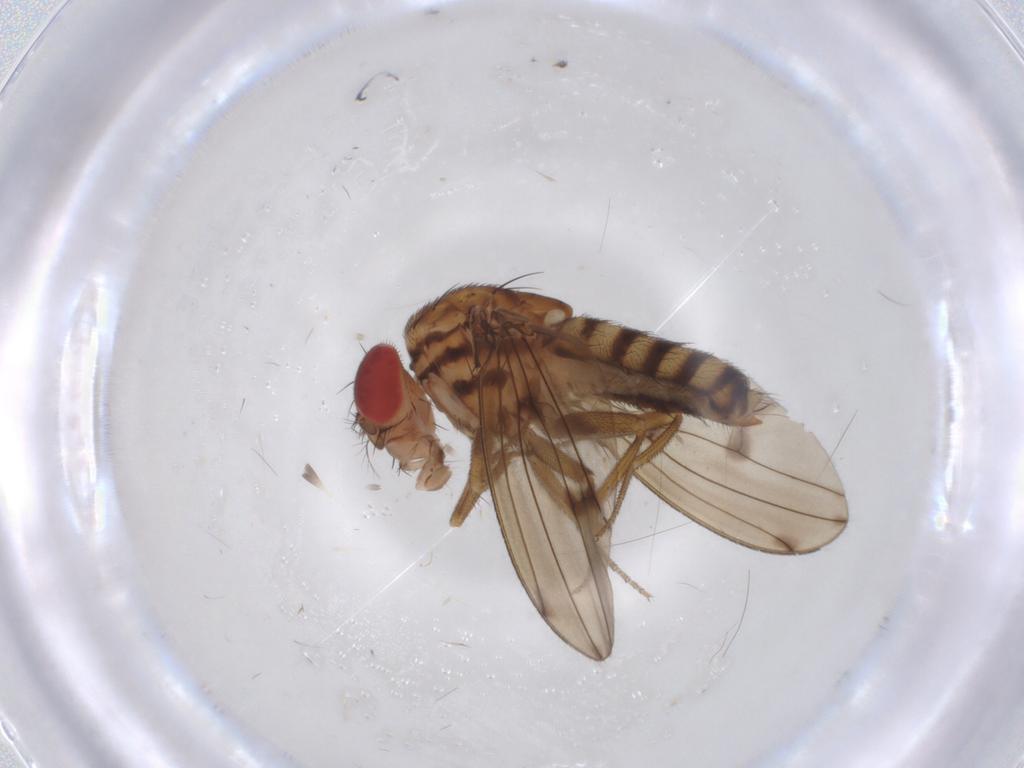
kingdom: Animalia
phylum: Arthropoda
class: Insecta
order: Diptera
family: Drosophilidae
